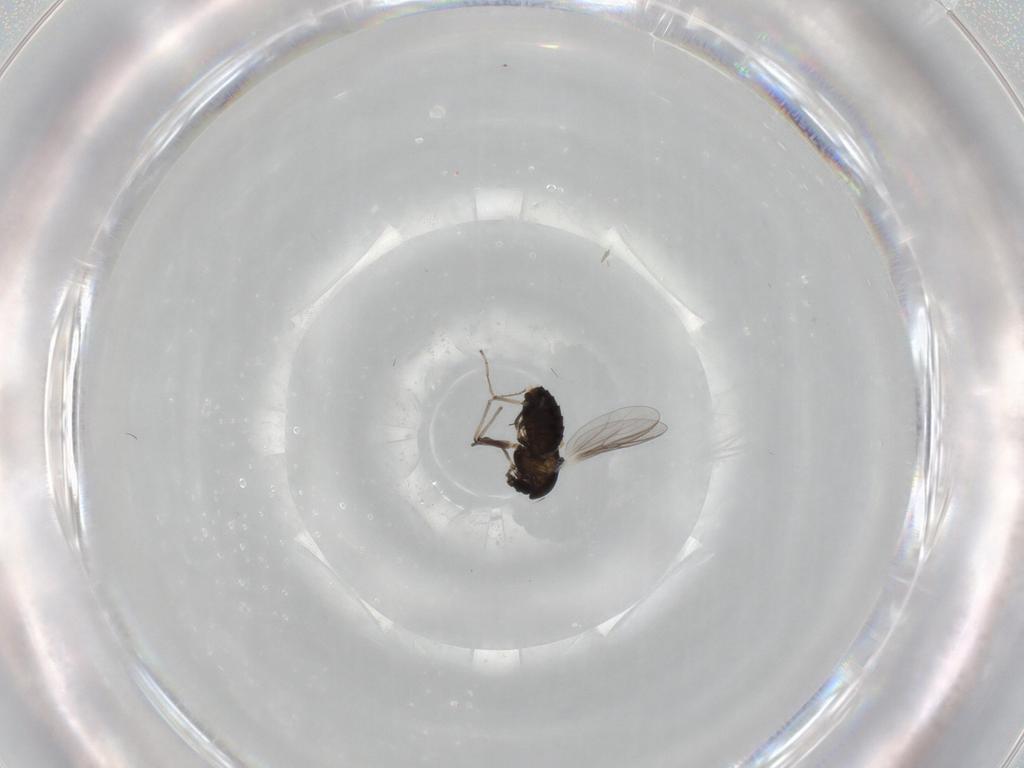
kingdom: Animalia
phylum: Arthropoda
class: Insecta
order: Diptera
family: Chironomidae
